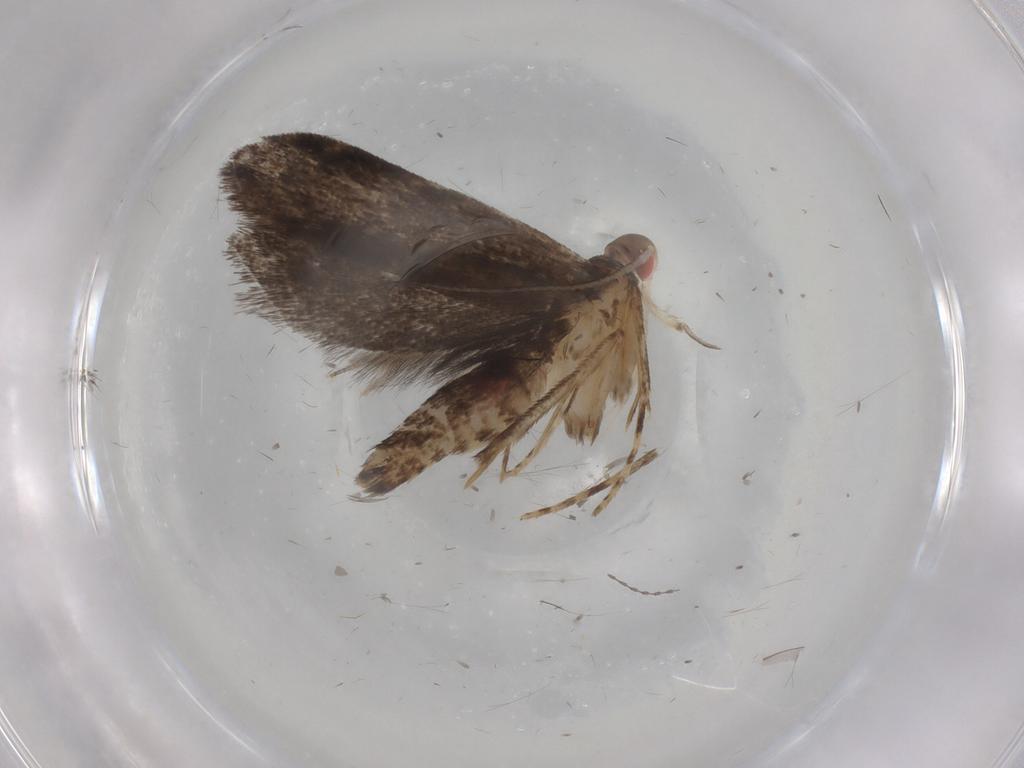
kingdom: Animalia
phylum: Arthropoda
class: Insecta
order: Lepidoptera
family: Gelechiidae
